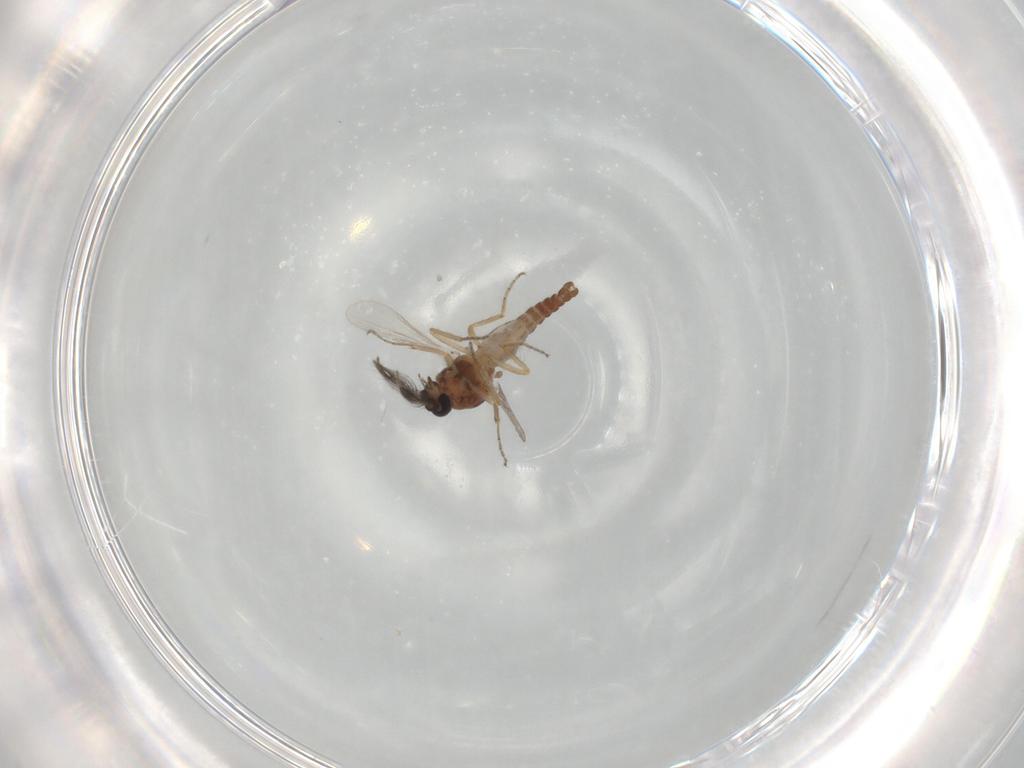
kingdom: Animalia
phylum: Arthropoda
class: Insecta
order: Diptera
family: Ceratopogonidae
